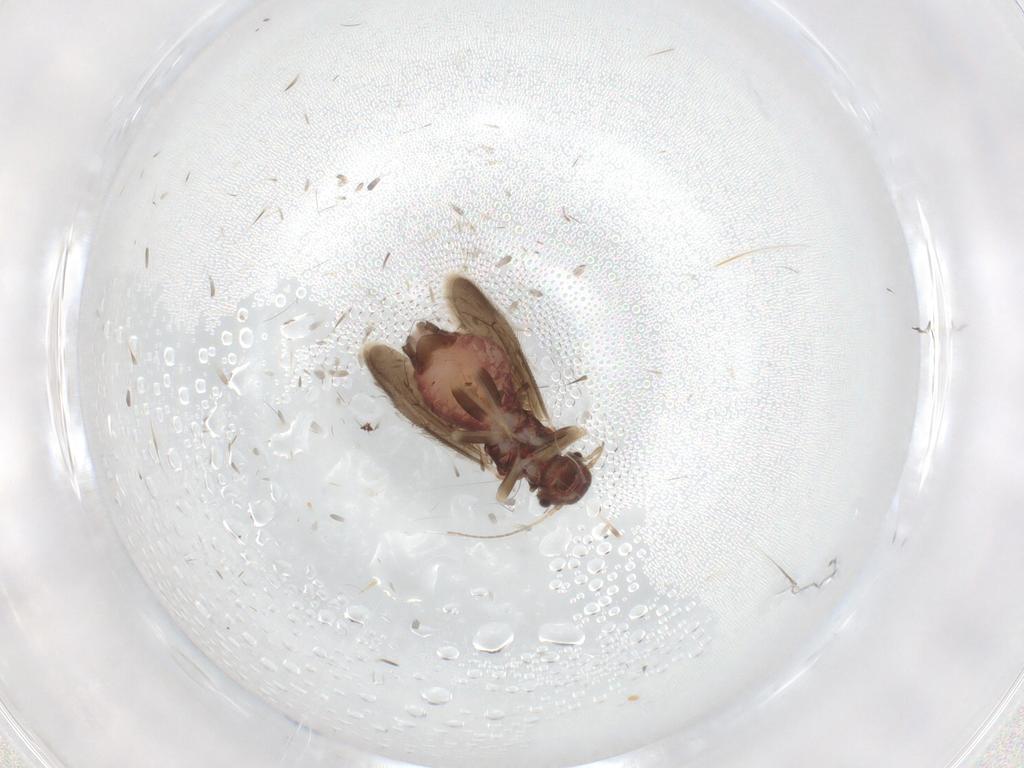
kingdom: Animalia
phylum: Arthropoda
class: Insecta
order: Psocodea
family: Archipsocidae
